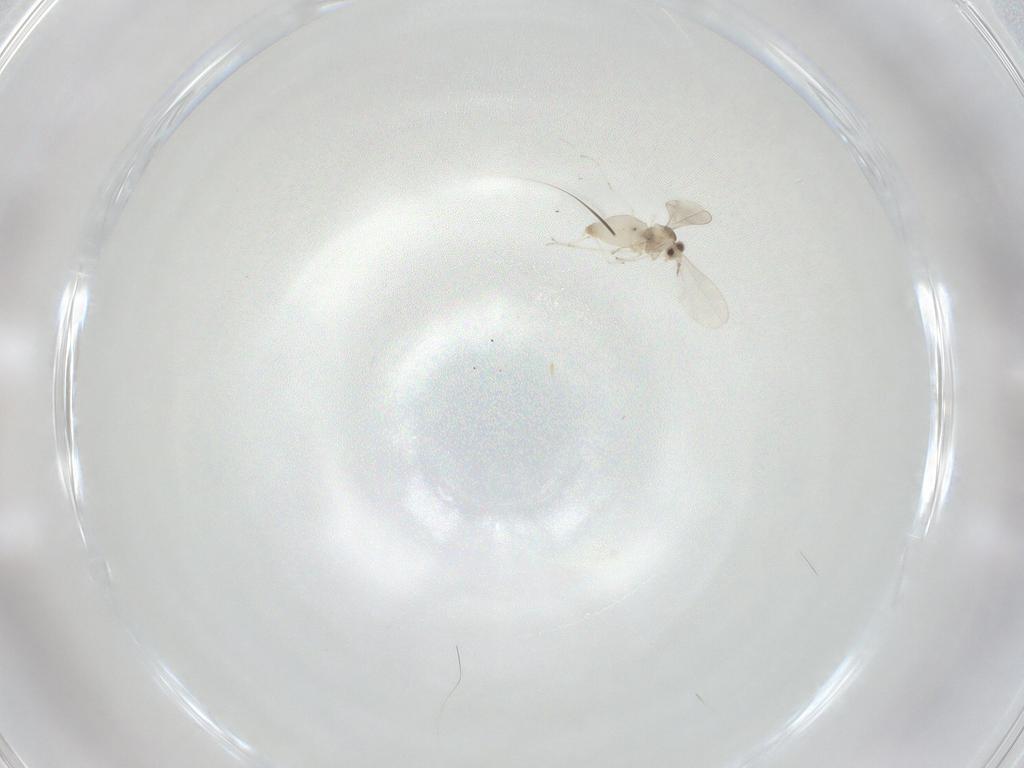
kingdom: Animalia
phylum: Arthropoda
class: Insecta
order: Diptera
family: Cecidomyiidae
